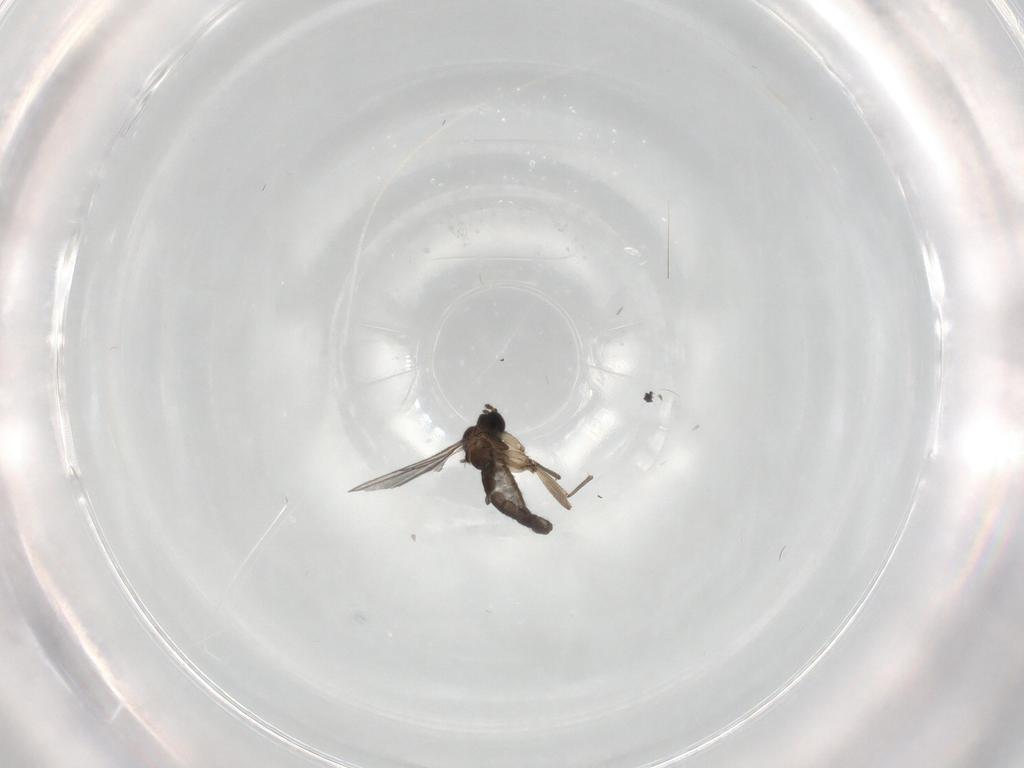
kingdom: Animalia
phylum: Arthropoda
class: Insecta
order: Diptera
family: Sciaridae
